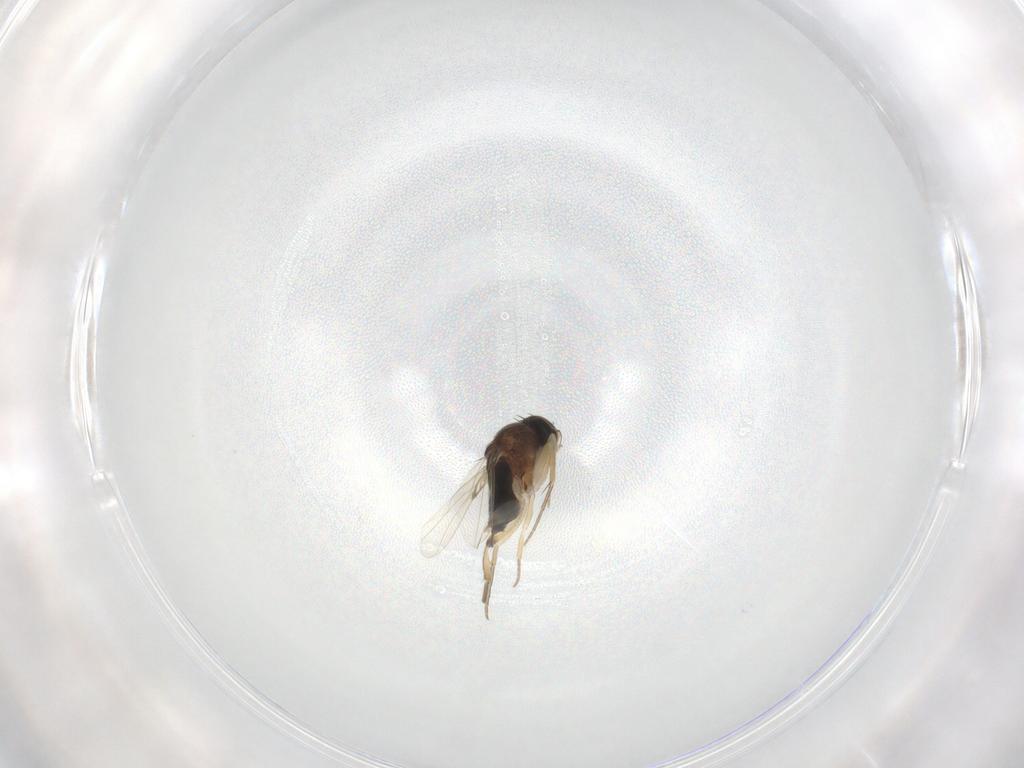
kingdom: Animalia
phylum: Arthropoda
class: Insecta
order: Diptera
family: Phoridae
